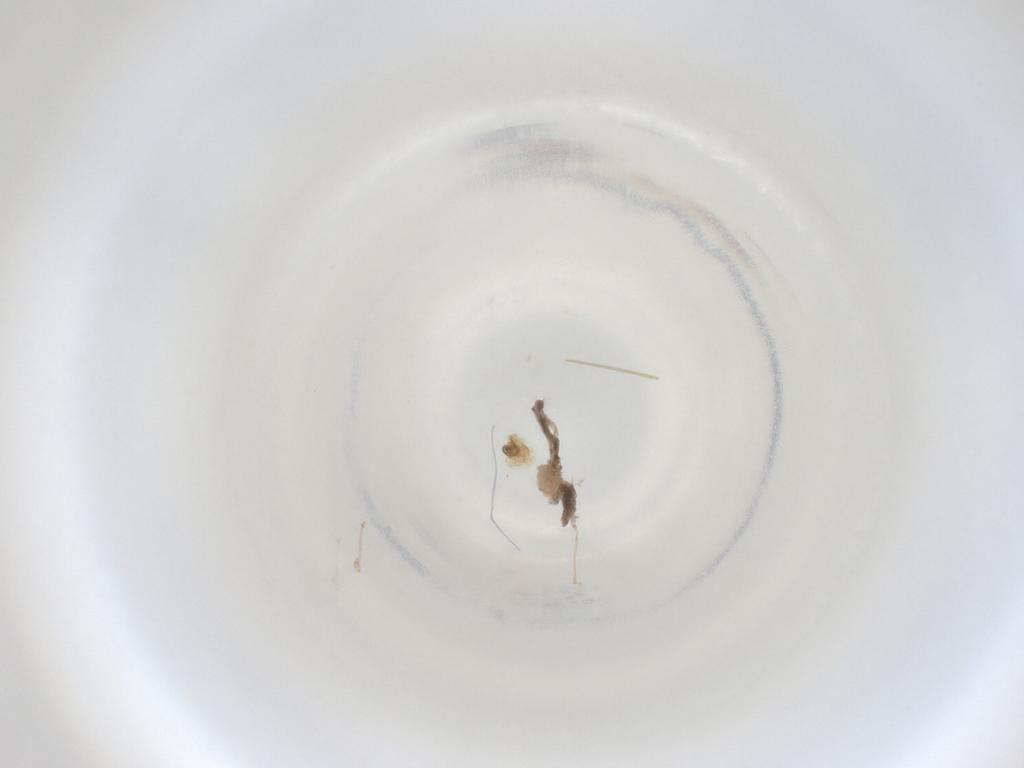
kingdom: Animalia
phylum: Arthropoda
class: Insecta
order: Diptera
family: Cecidomyiidae
